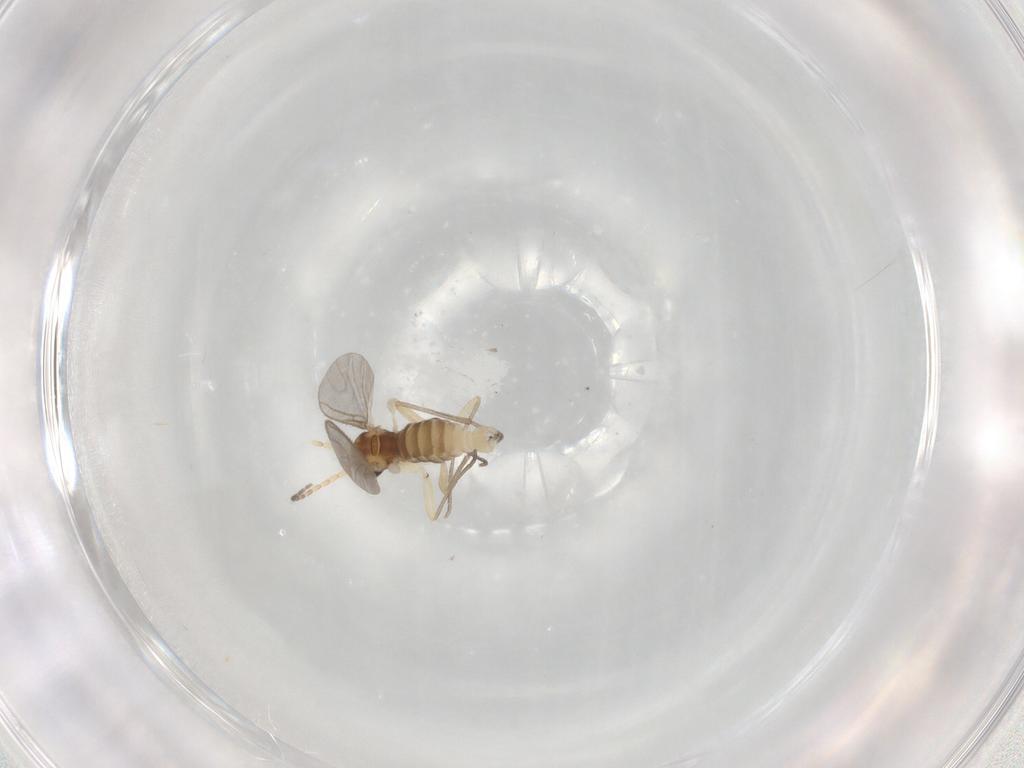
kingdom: Animalia
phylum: Arthropoda
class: Insecta
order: Diptera
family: Sciaridae
